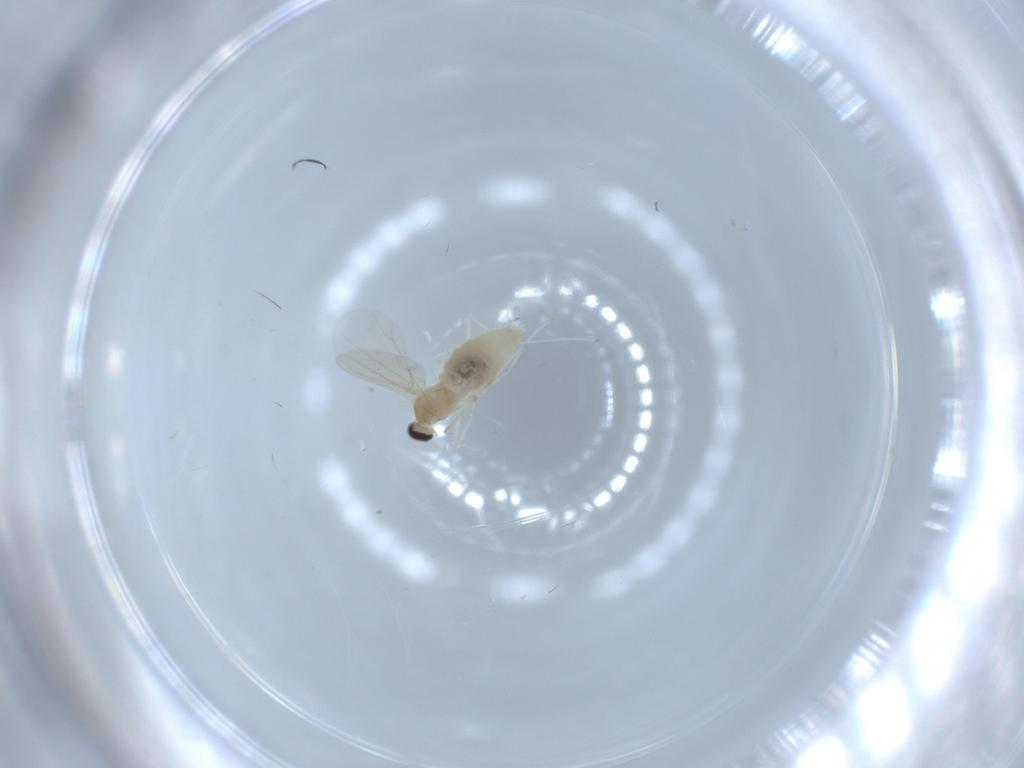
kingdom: Animalia
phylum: Arthropoda
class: Insecta
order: Diptera
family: Cecidomyiidae
